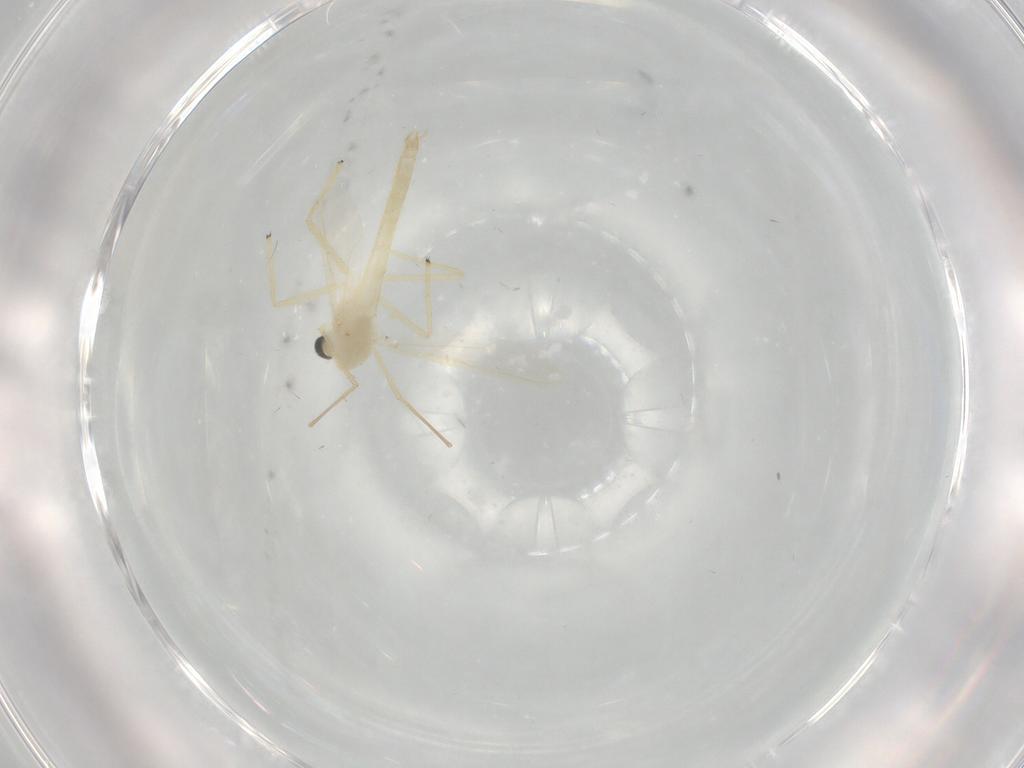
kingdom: Animalia
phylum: Arthropoda
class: Insecta
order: Diptera
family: Chironomidae
